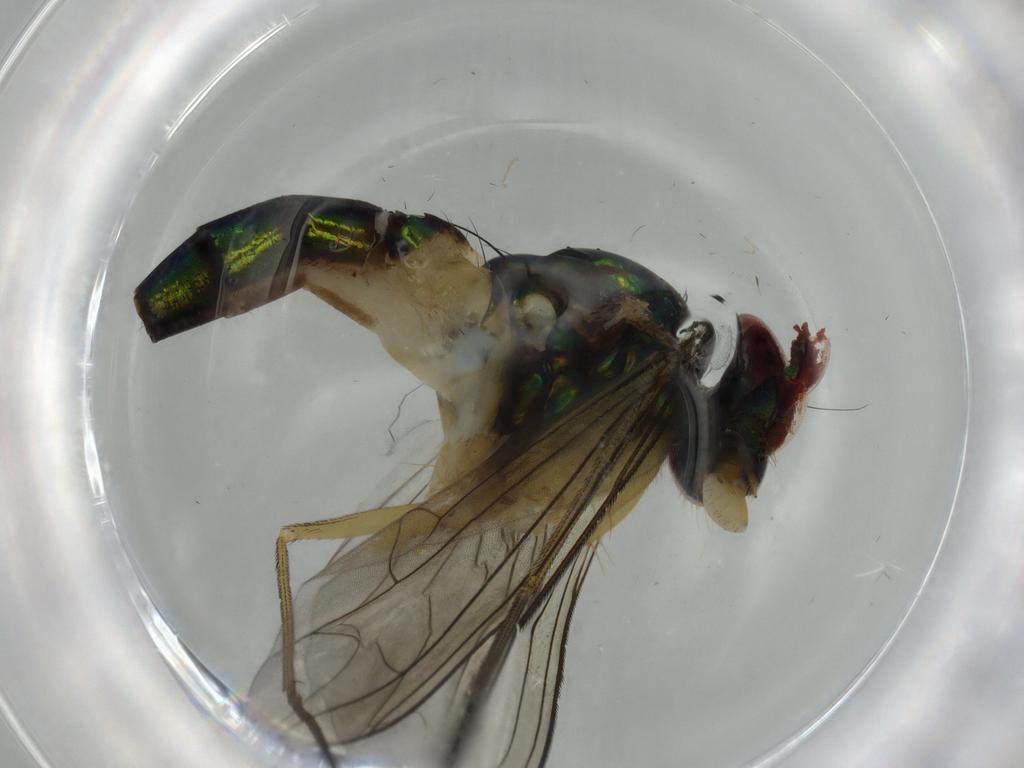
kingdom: Animalia
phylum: Arthropoda
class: Insecta
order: Diptera
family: Dolichopodidae
